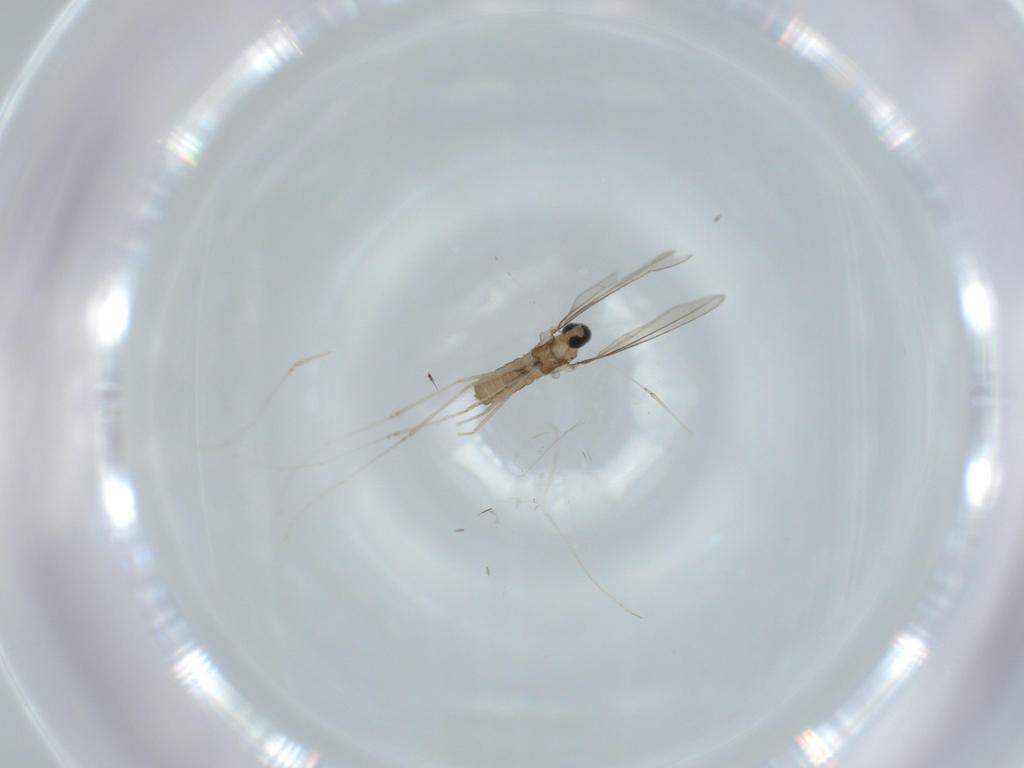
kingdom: Animalia
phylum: Arthropoda
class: Insecta
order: Diptera
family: Cecidomyiidae
